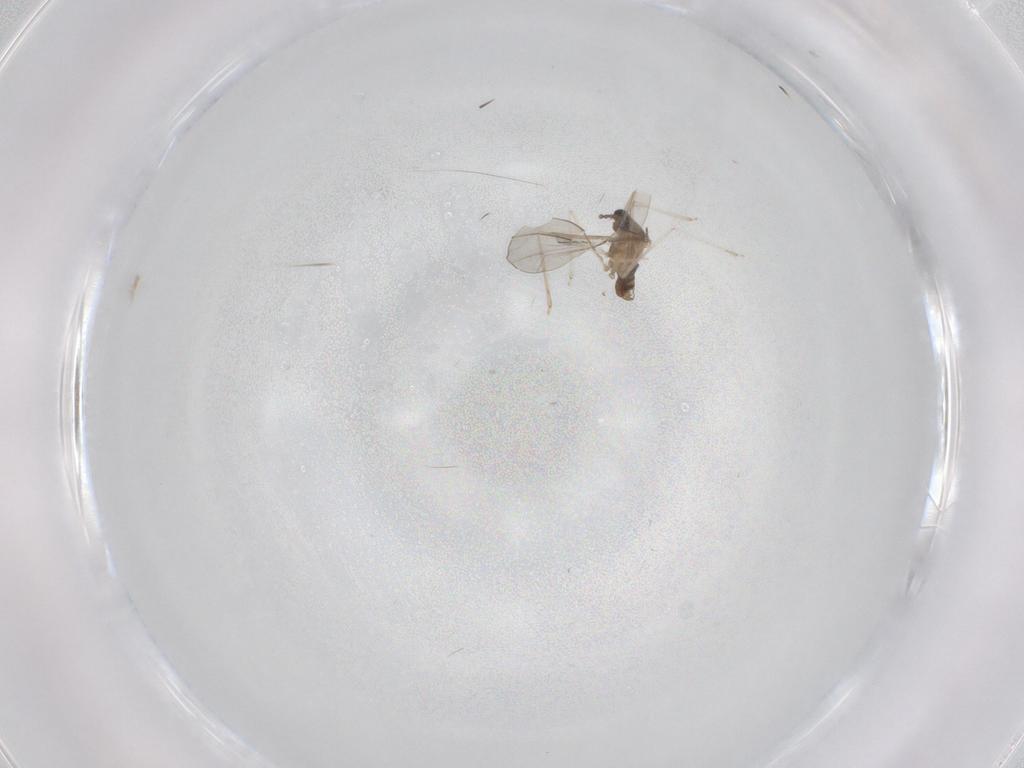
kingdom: Animalia
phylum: Arthropoda
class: Insecta
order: Diptera
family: Cecidomyiidae
